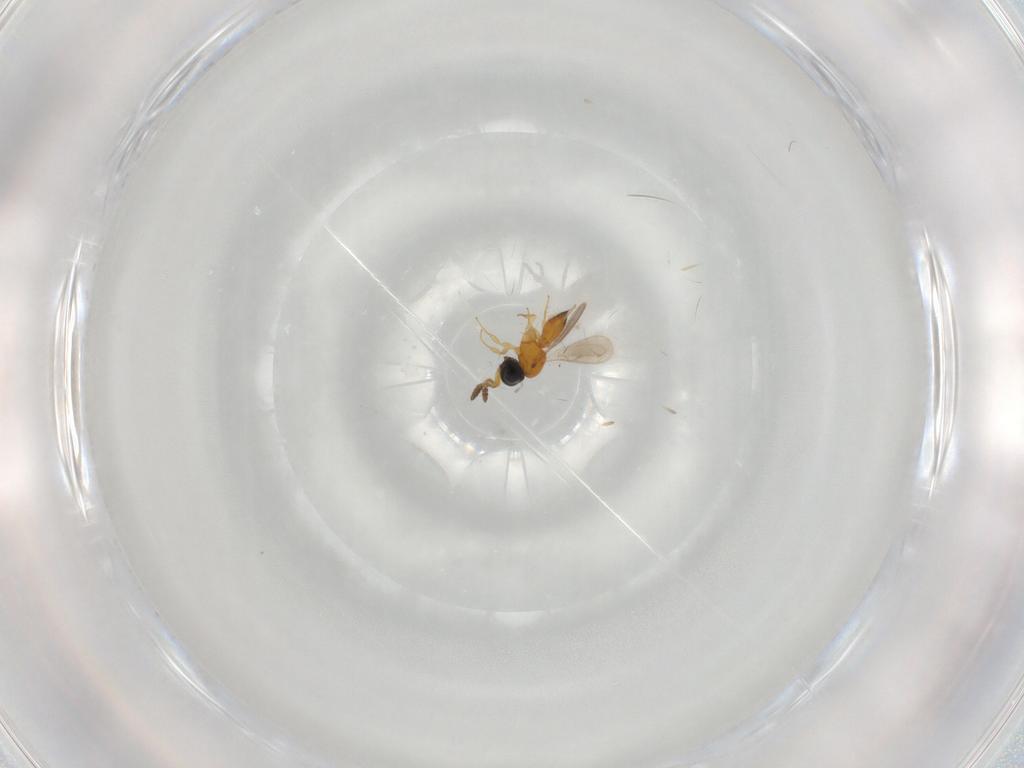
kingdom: Animalia
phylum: Arthropoda
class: Insecta
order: Hymenoptera
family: Scelionidae
